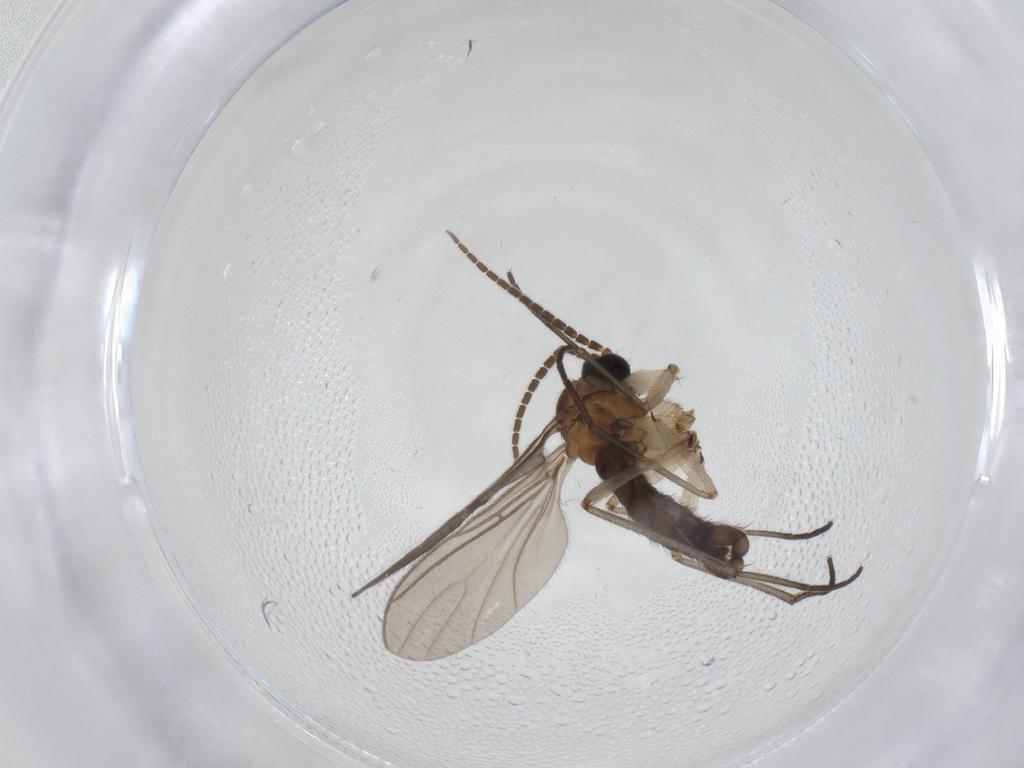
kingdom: Animalia
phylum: Arthropoda
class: Insecta
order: Diptera
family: Sciaridae
